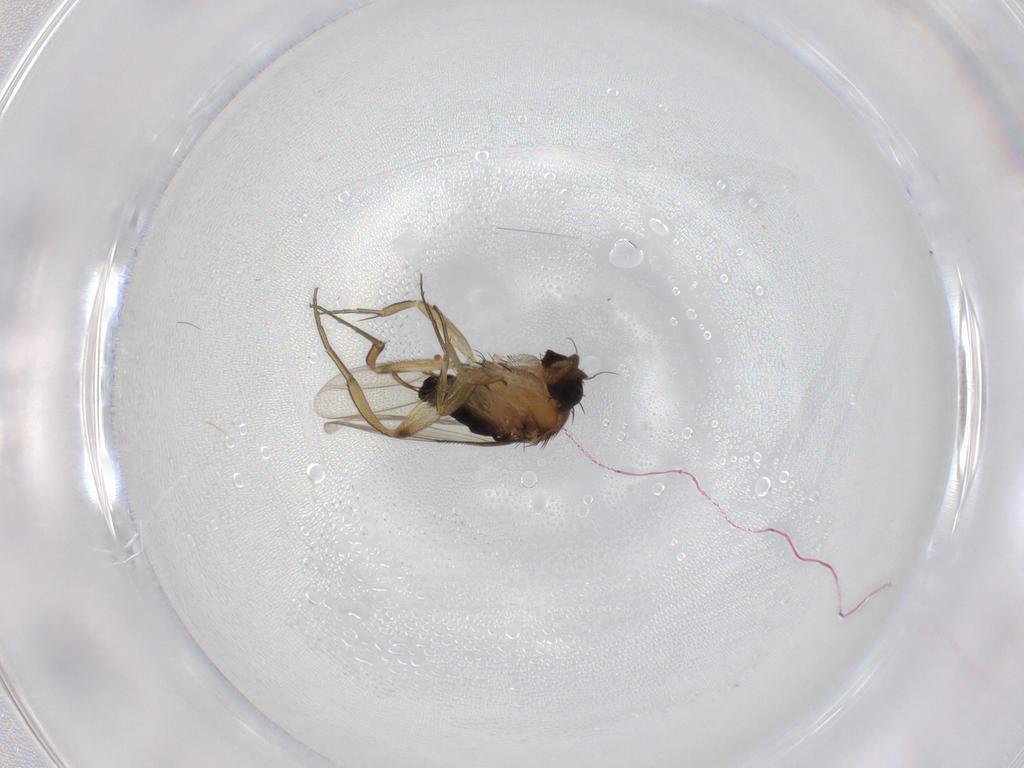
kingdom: Animalia
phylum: Arthropoda
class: Insecta
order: Diptera
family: Phoridae
